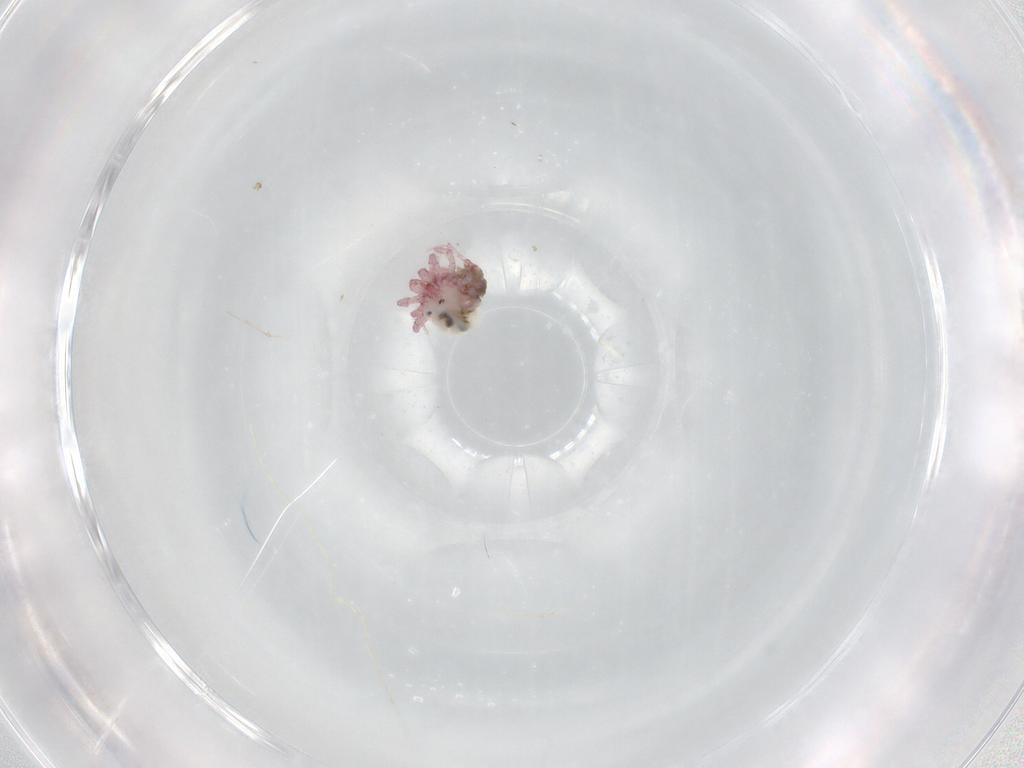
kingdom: Animalia
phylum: Arthropoda
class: Arachnida
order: Trombidiformes
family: Pionidae
